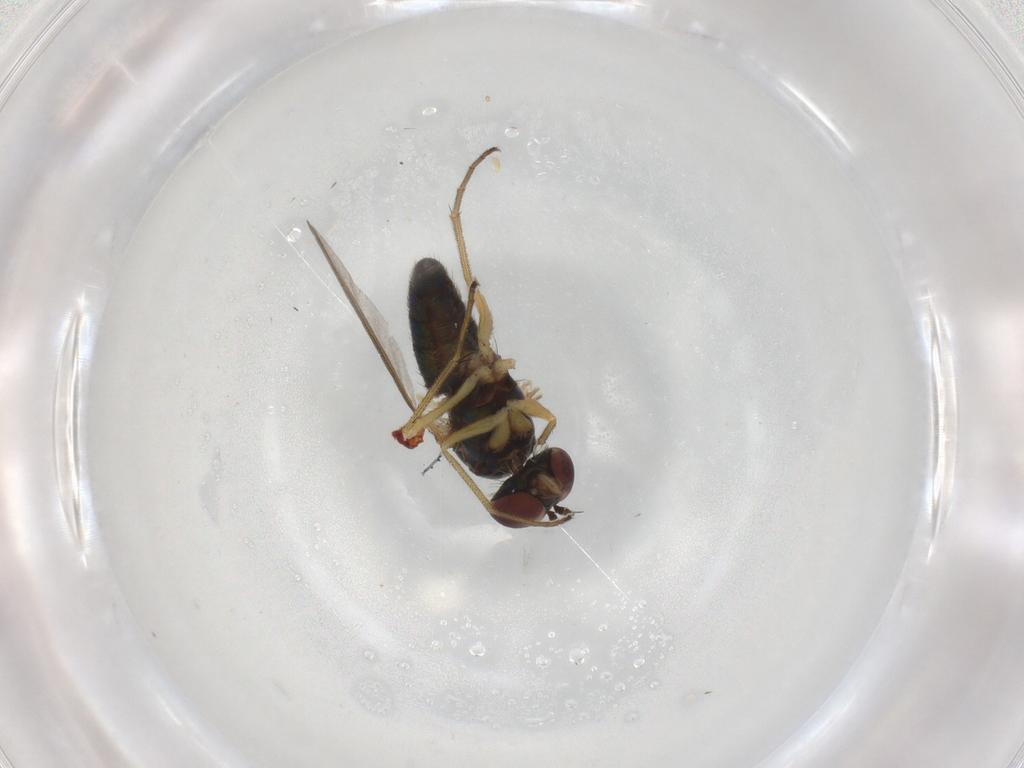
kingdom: Animalia
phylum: Arthropoda
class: Insecta
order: Diptera
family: Dolichopodidae
